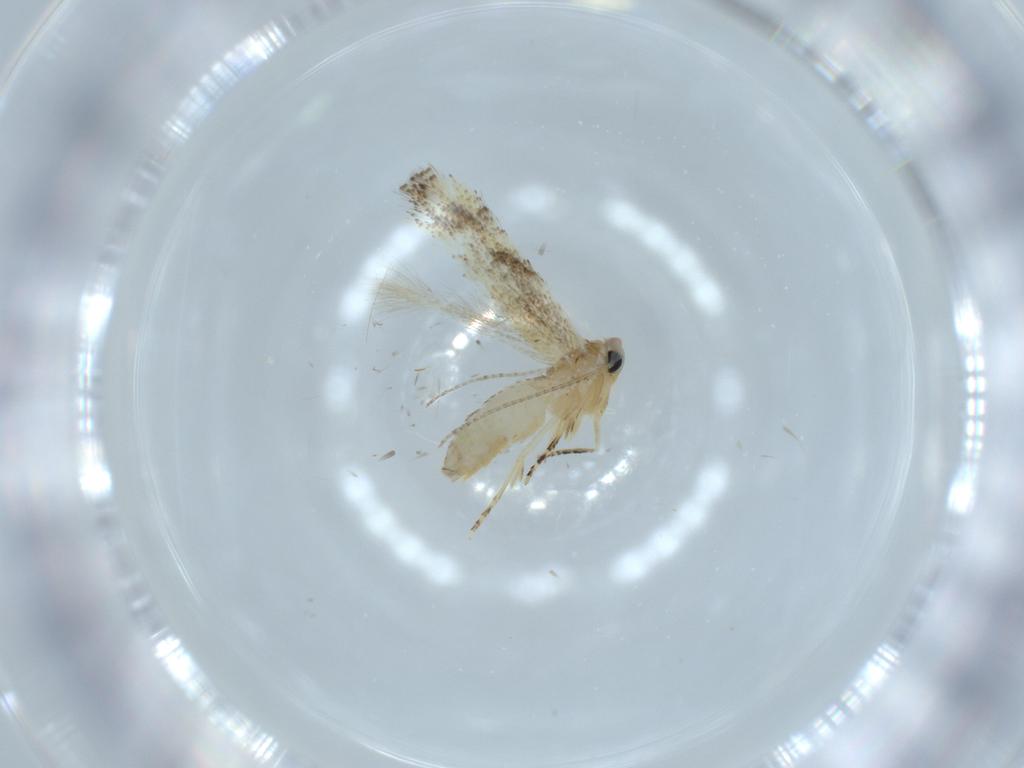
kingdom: Animalia
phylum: Arthropoda
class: Insecta
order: Lepidoptera
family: Bucculatricidae
